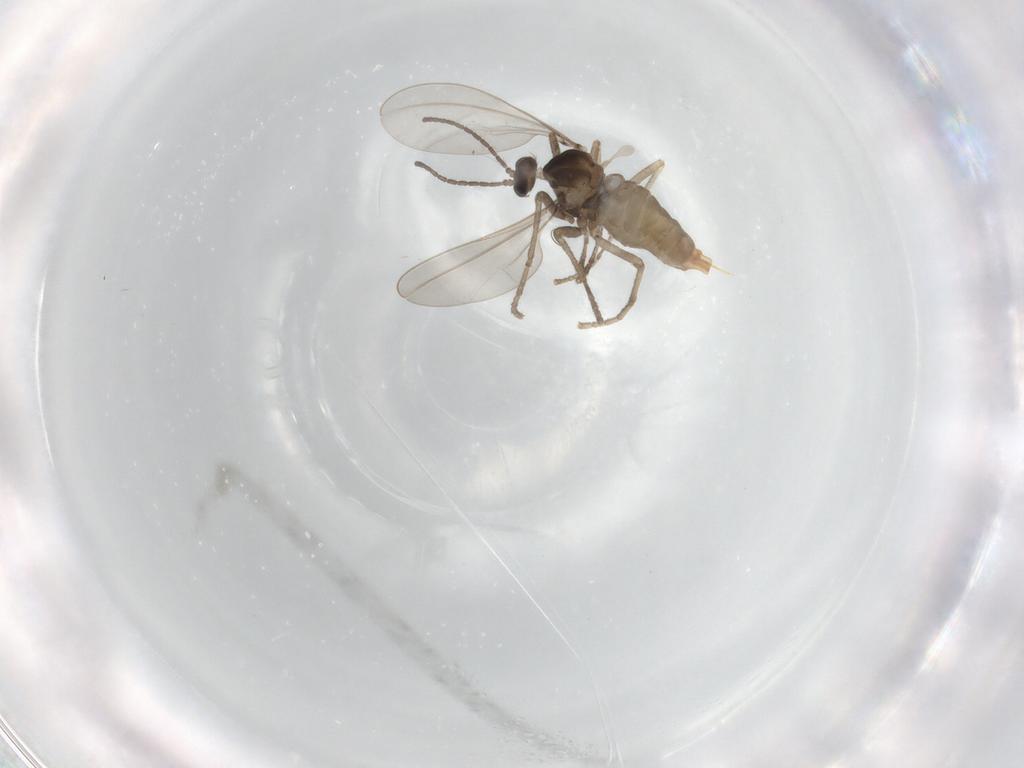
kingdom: Animalia
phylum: Arthropoda
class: Insecta
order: Diptera
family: Cecidomyiidae
